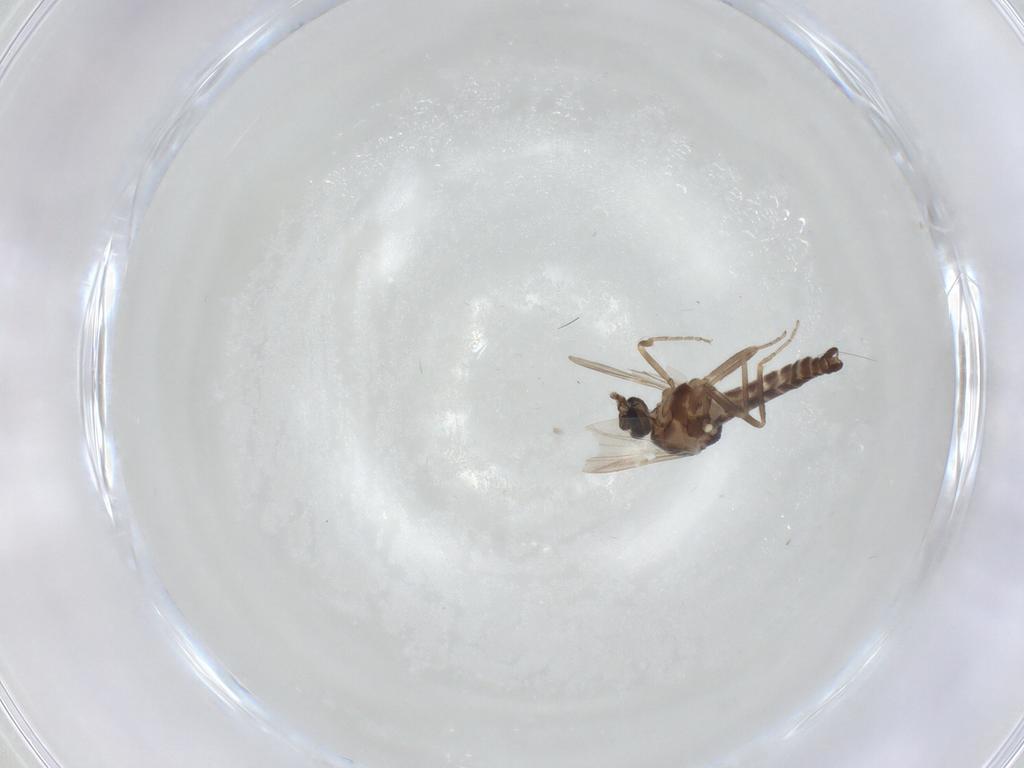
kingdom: Animalia
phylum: Arthropoda
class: Insecta
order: Diptera
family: Ceratopogonidae
